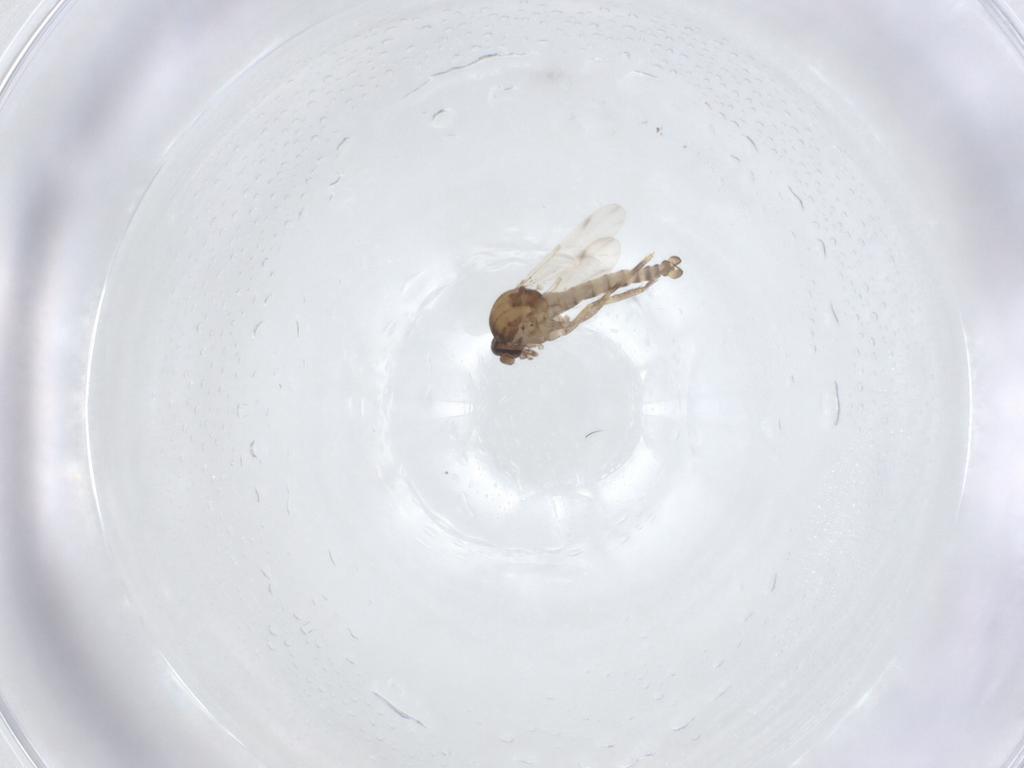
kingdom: Animalia
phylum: Arthropoda
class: Insecta
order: Diptera
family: Ceratopogonidae
